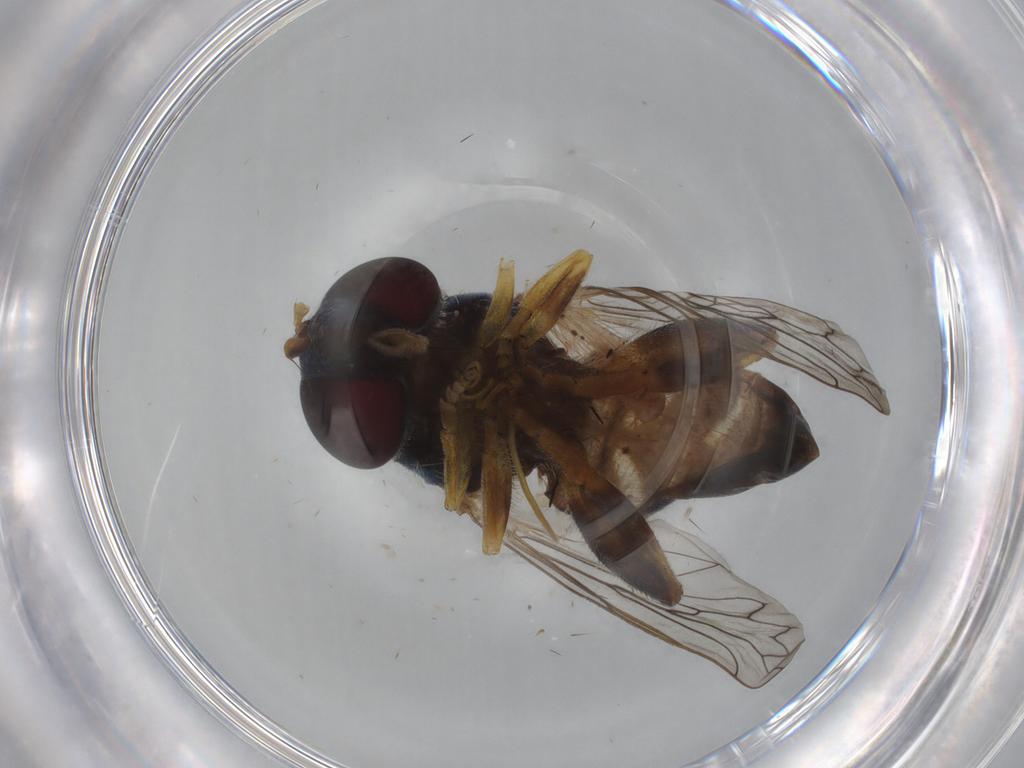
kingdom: Animalia
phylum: Arthropoda
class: Insecta
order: Diptera
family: Syrphidae
